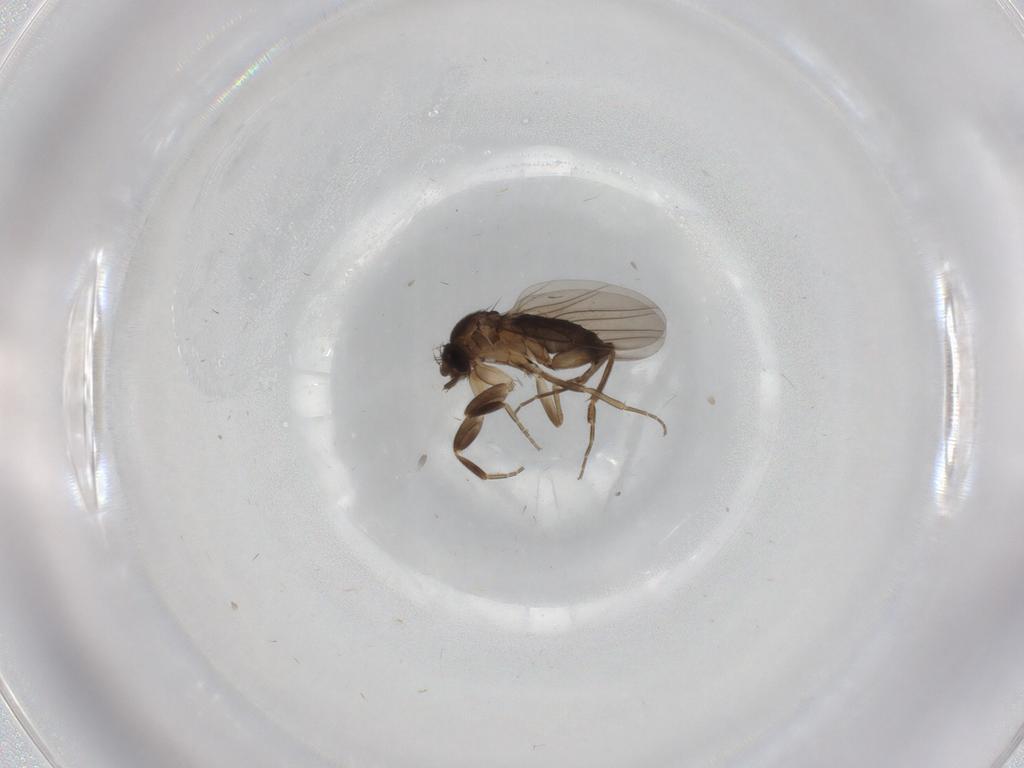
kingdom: Animalia
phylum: Arthropoda
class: Insecta
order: Diptera
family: Phoridae
